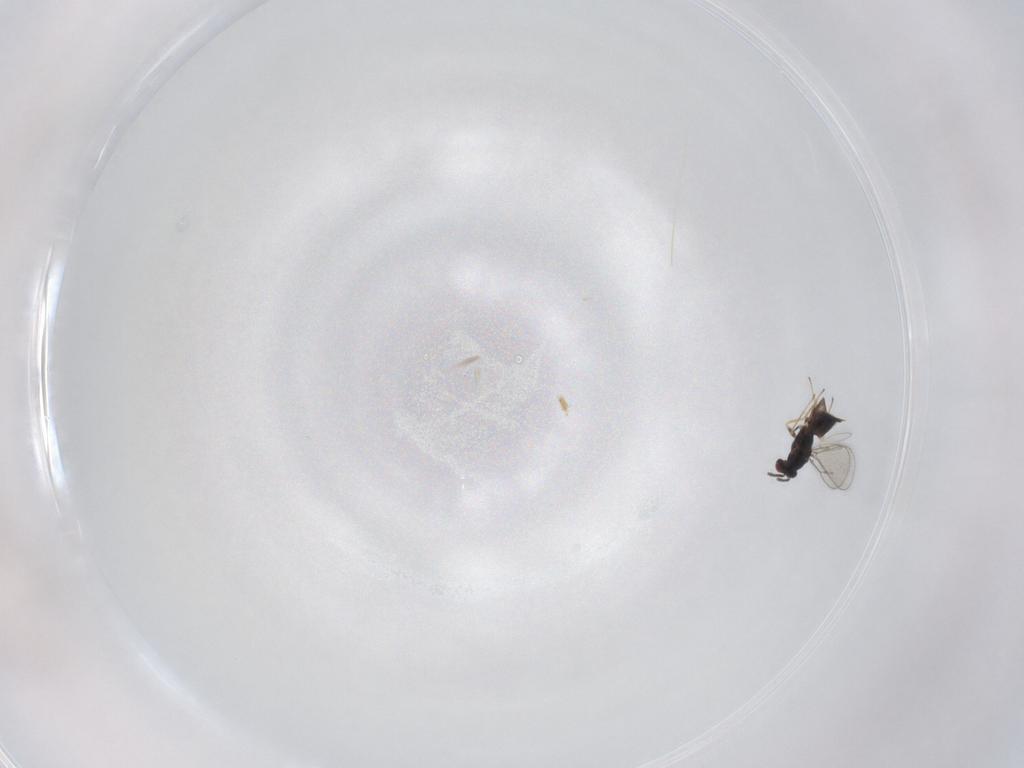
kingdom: Animalia
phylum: Arthropoda
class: Insecta
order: Hymenoptera
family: Eulophidae
